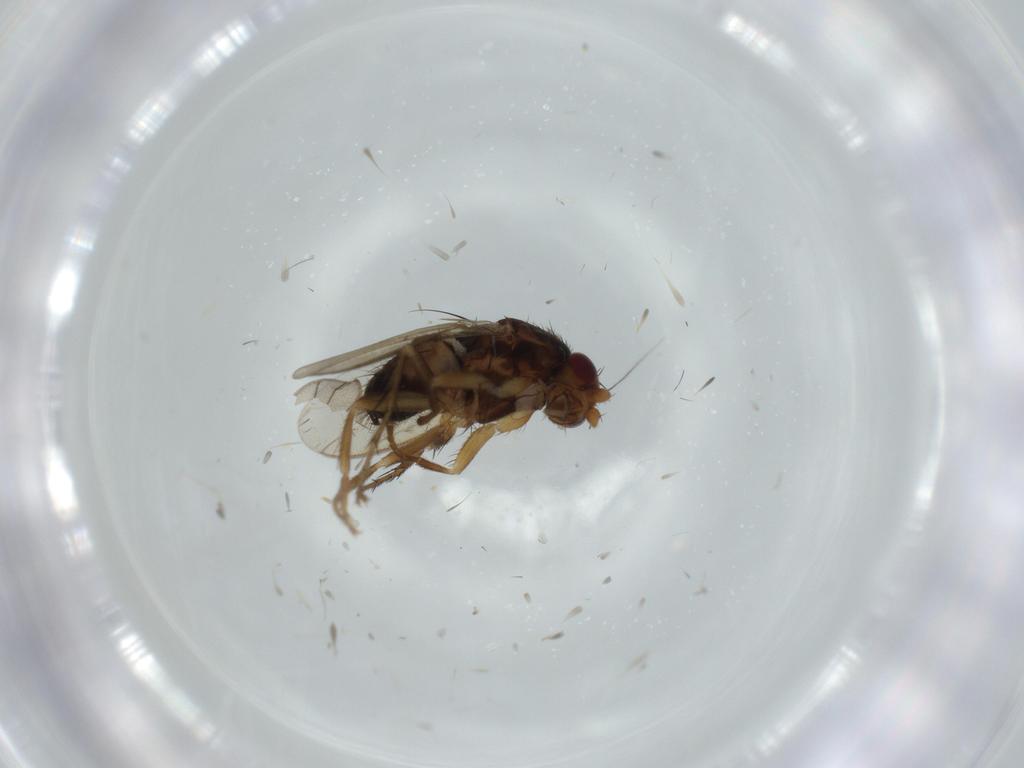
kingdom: Animalia
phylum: Arthropoda
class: Insecta
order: Diptera
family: Sphaeroceridae
